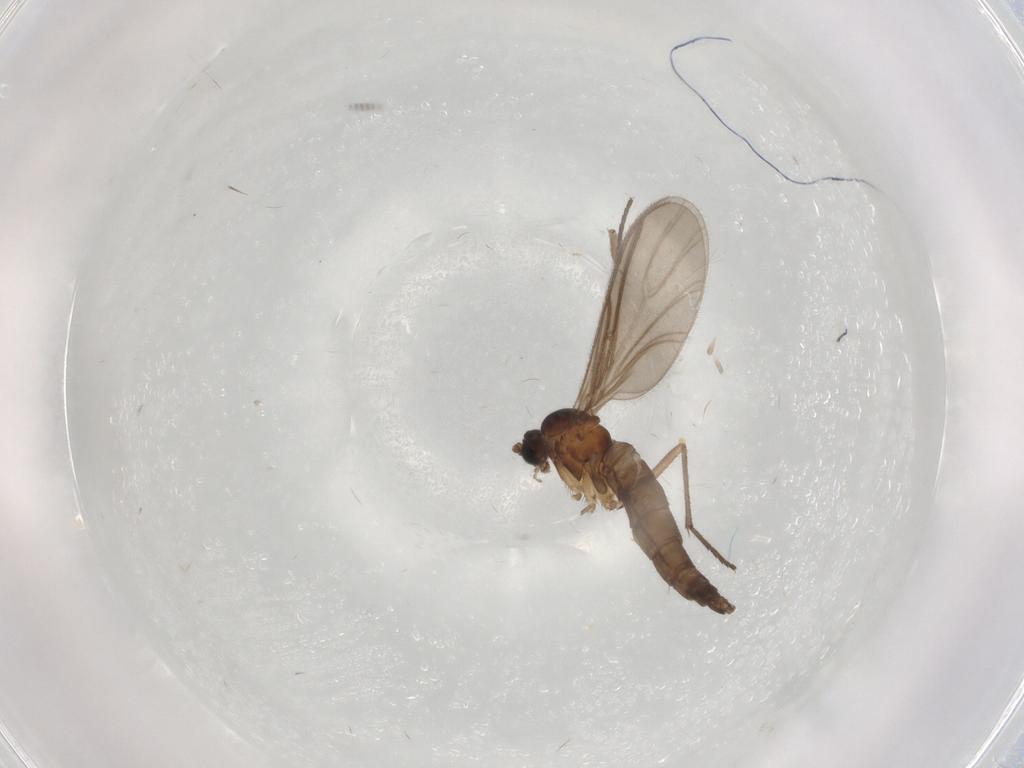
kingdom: Animalia
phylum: Arthropoda
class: Insecta
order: Diptera
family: Sciaridae
